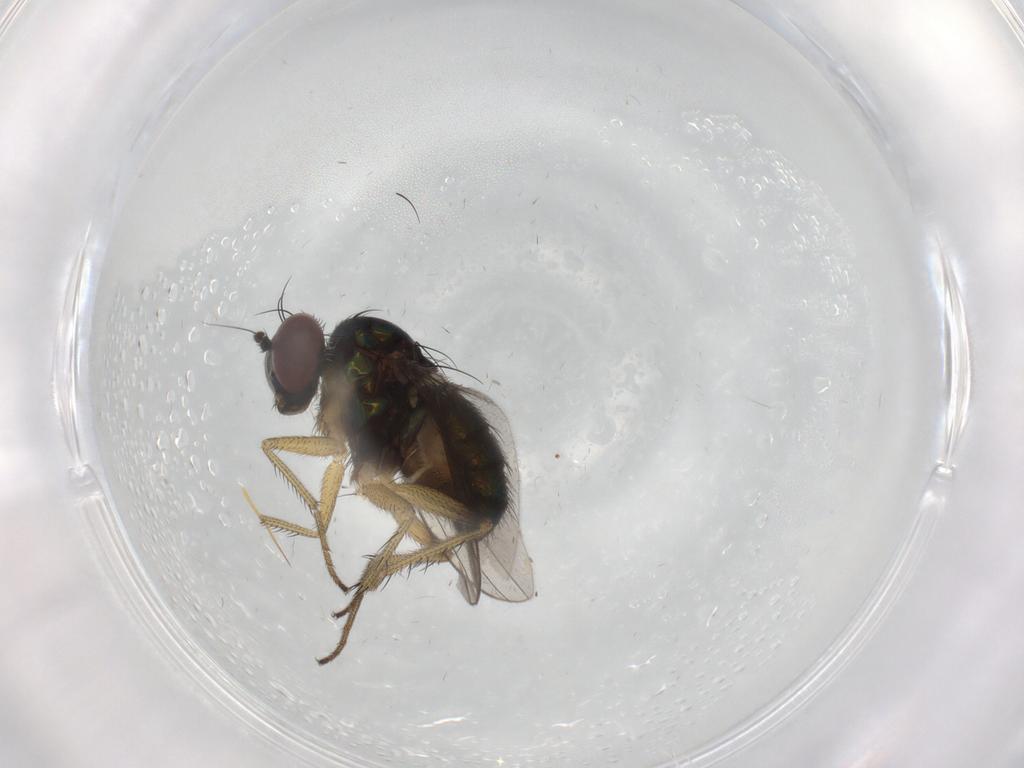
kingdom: Animalia
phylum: Arthropoda
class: Insecta
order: Diptera
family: Dolichopodidae
